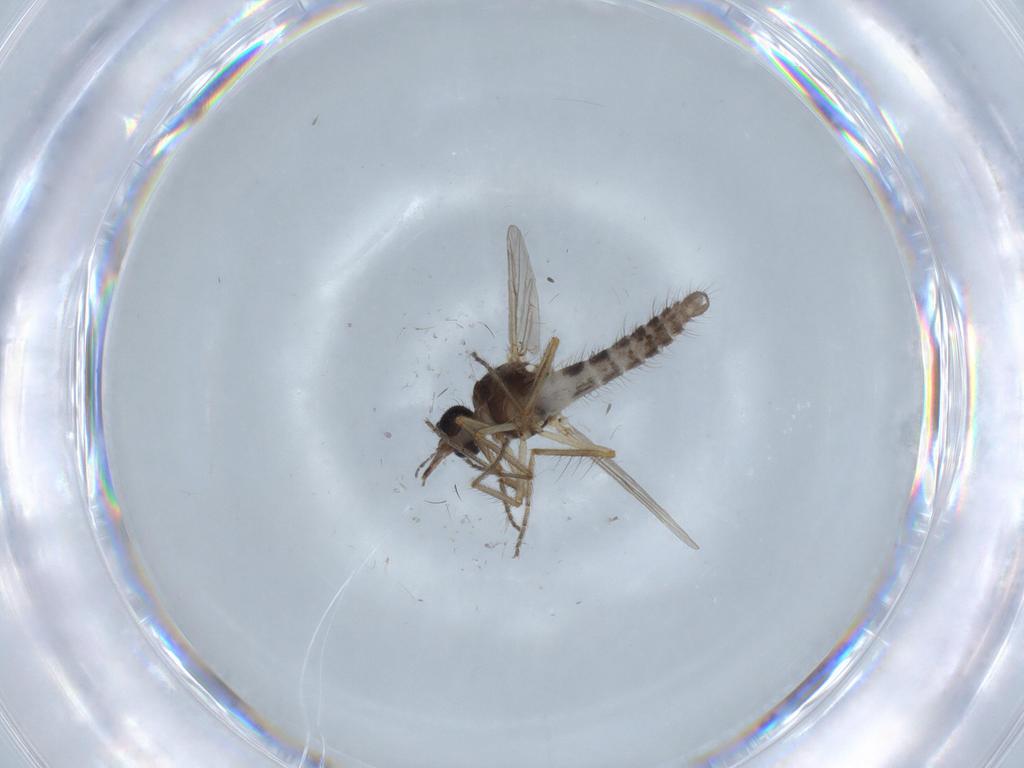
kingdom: Animalia
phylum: Arthropoda
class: Insecta
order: Diptera
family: Ceratopogonidae
